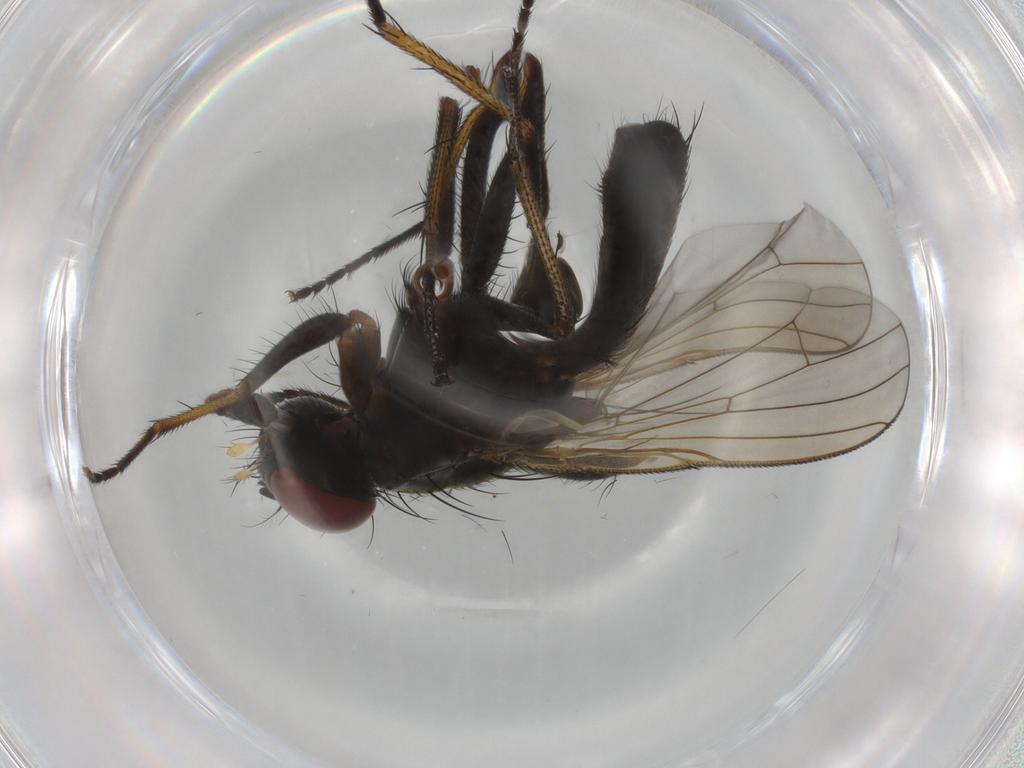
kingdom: Animalia
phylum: Arthropoda
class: Insecta
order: Diptera
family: Muscidae
